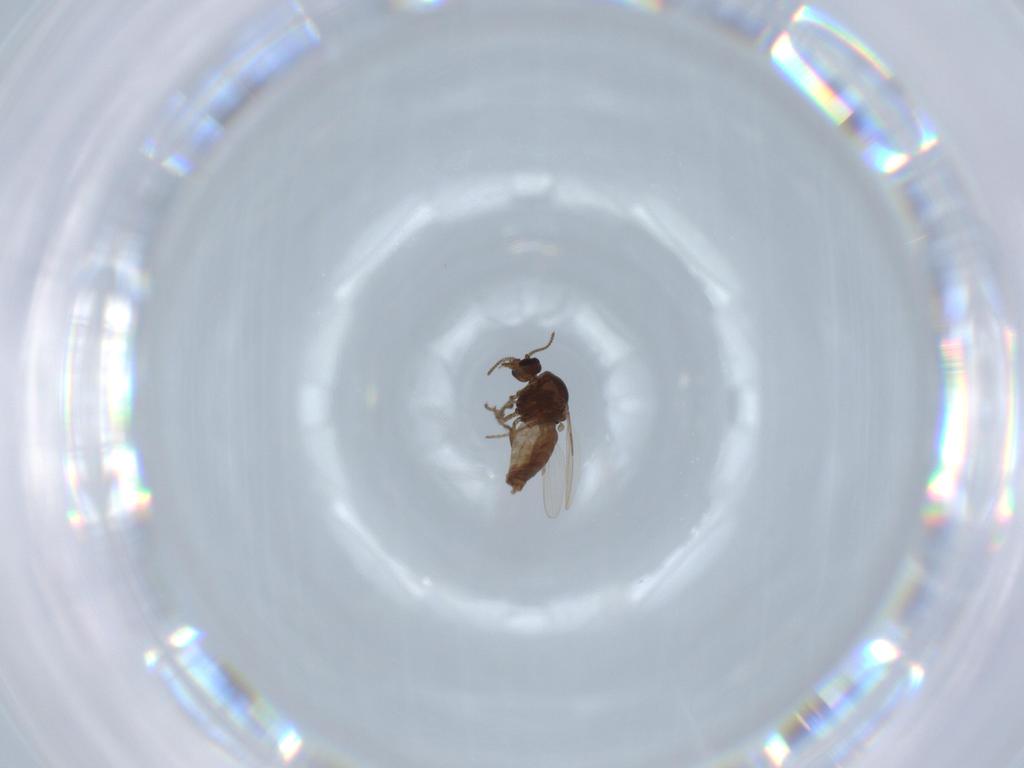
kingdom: Animalia
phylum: Arthropoda
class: Insecta
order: Diptera
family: Ceratopogonidae
